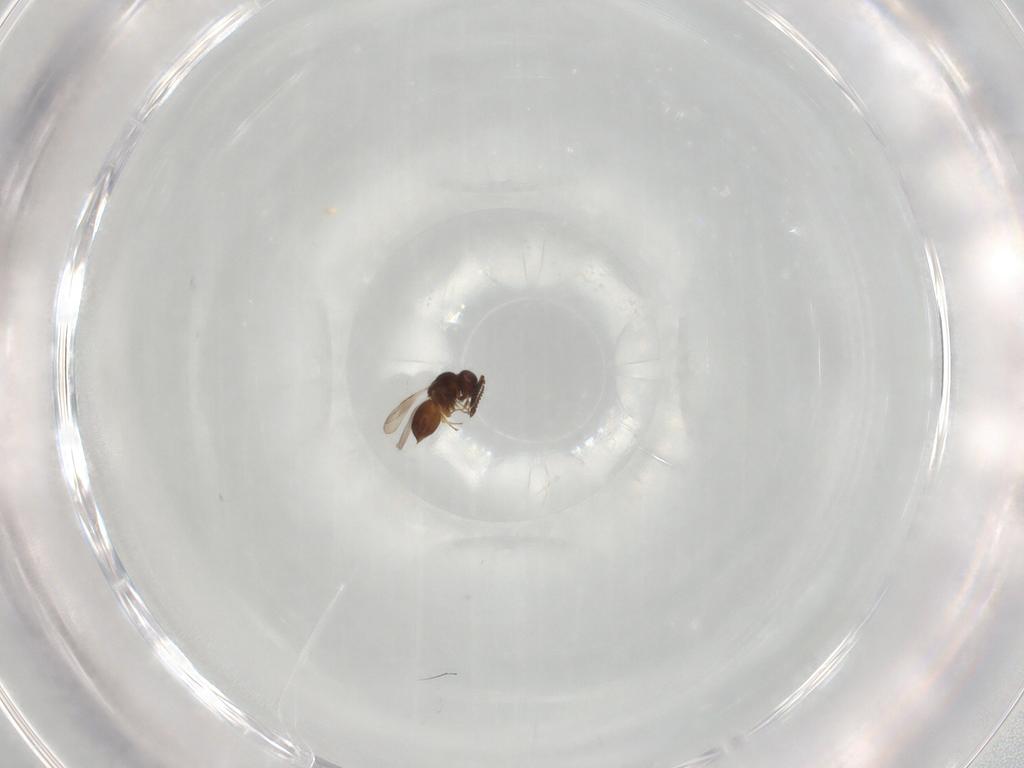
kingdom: Animalia
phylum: Arthropoda
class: Insecta
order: Hymenoptera
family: Ceraphronidae
